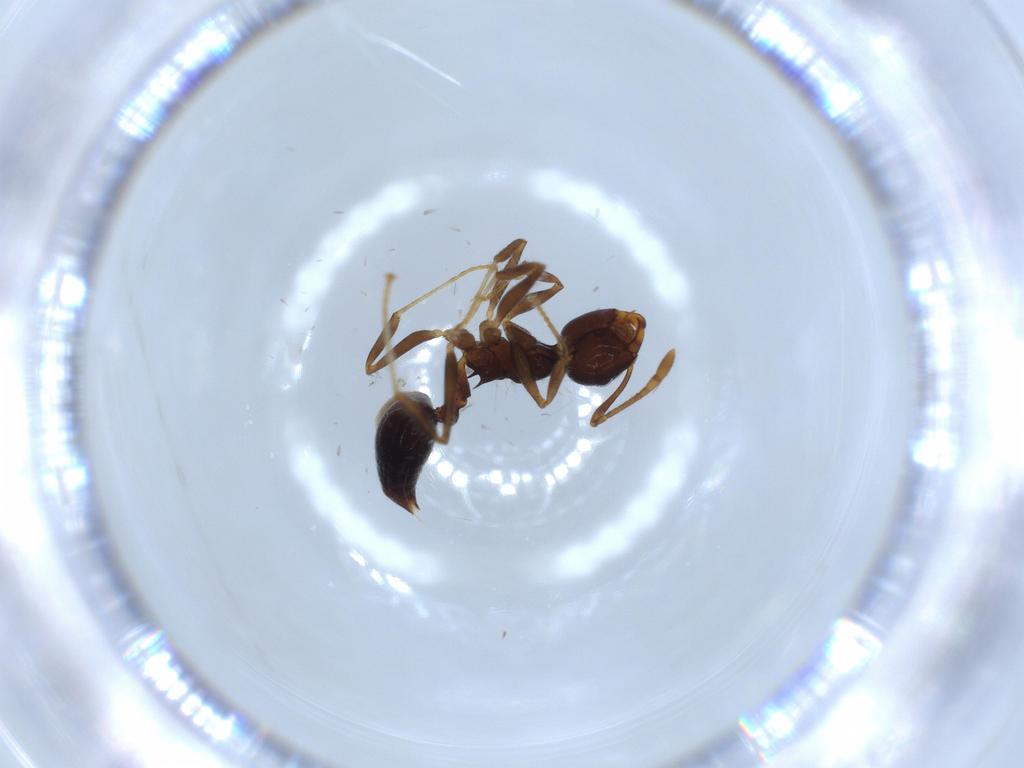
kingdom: Animalia
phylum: Arthropoda
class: Insecta
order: Hymenoptera
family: Formicidae
